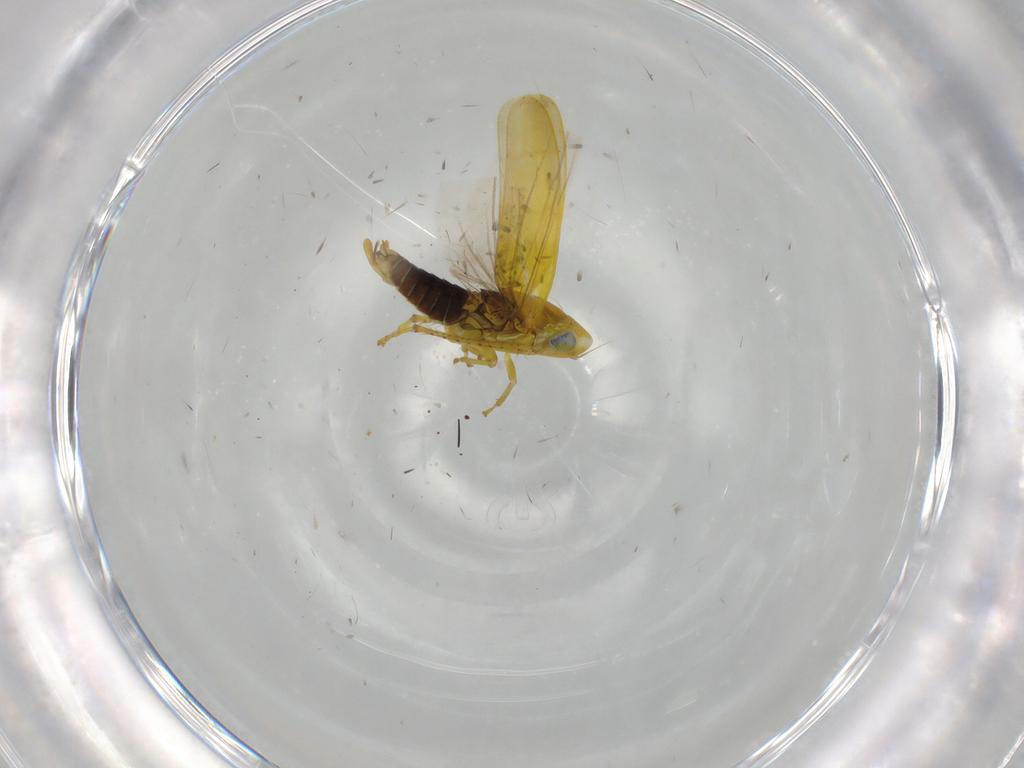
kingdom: Animalia
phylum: Arthropoda
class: Insecta
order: Hemiptera
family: Cicadellidae
